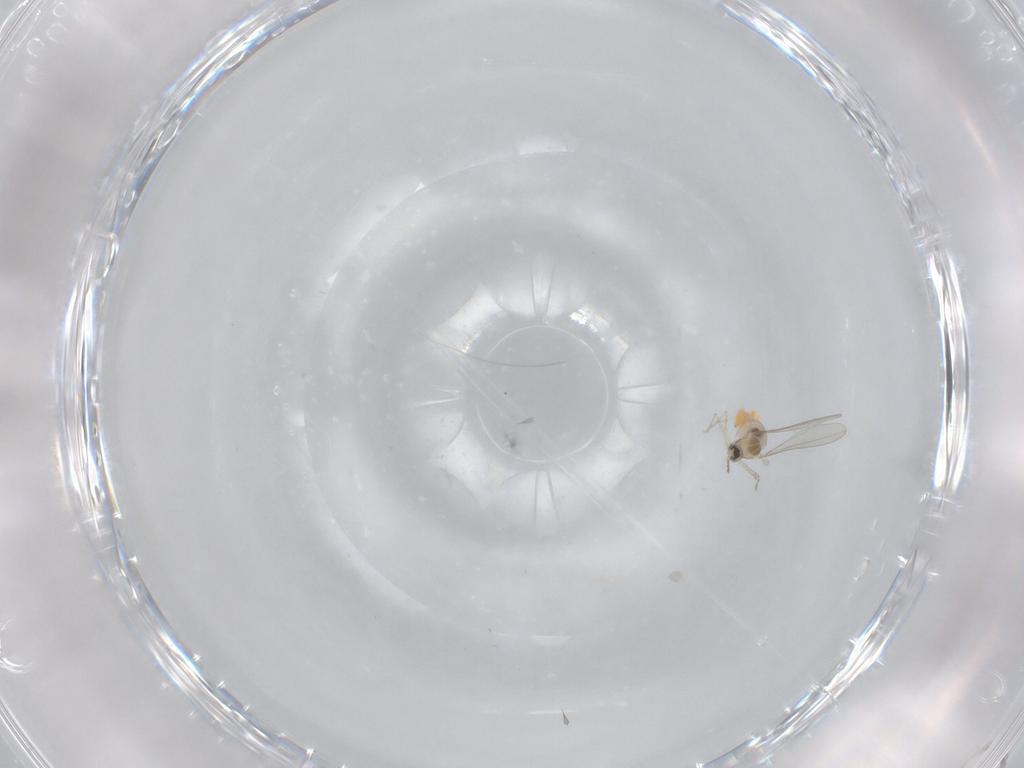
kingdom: Animalia
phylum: Arthropoda
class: Insecta
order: Diptera
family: Cecidomyiidae
